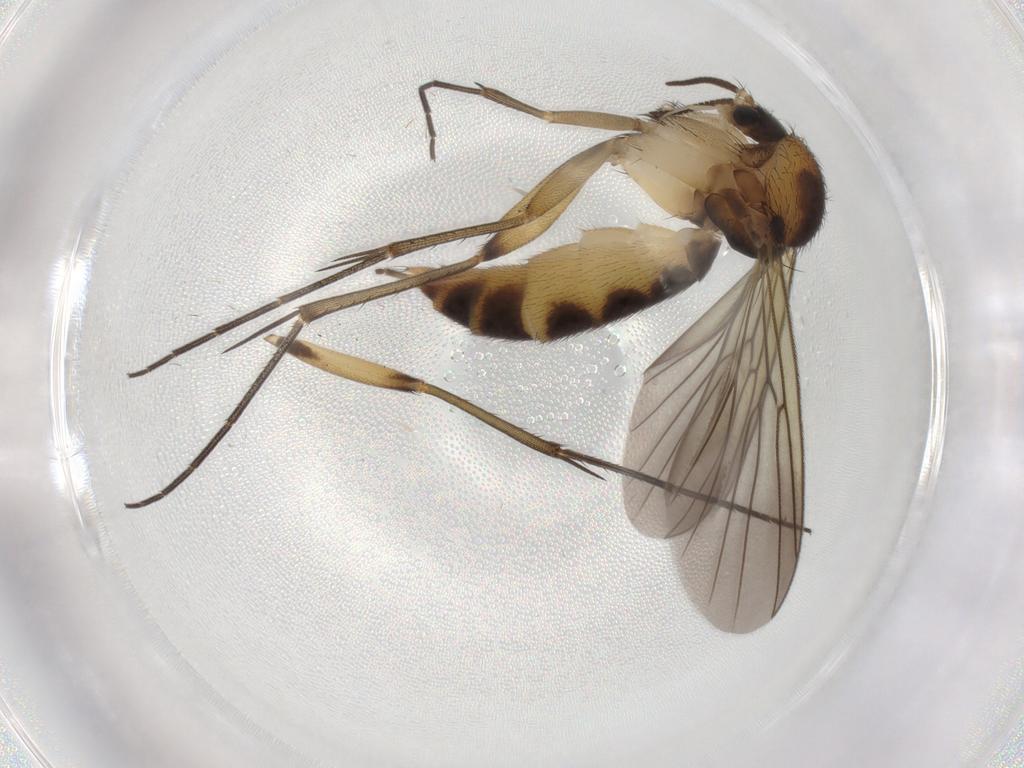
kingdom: Animalia
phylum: Arthropoda
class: Insecta
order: Diptera
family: Mycetophilidae
